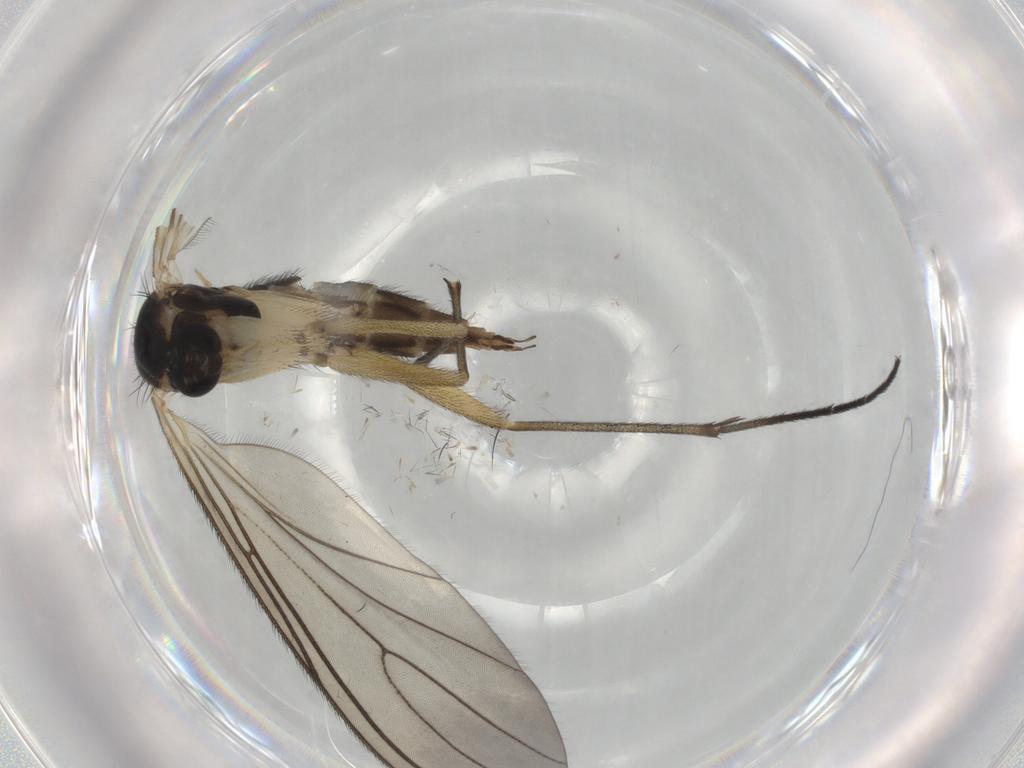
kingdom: Animalia
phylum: Arthropoda
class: Insecta
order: Diptera
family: Sciaridae
